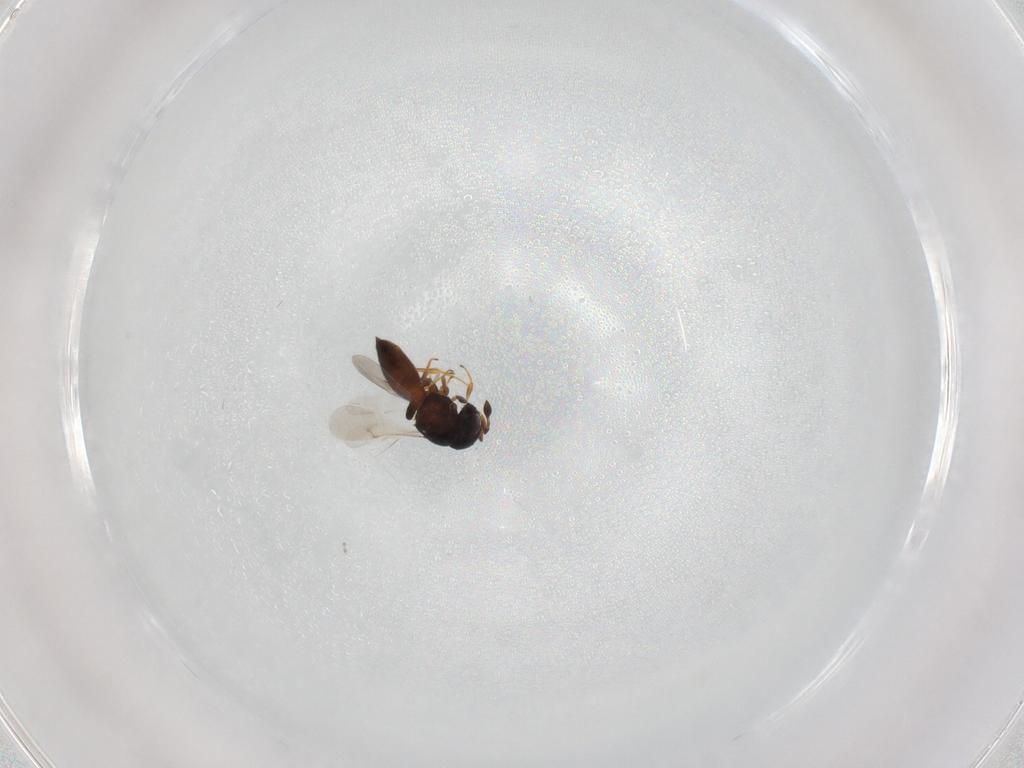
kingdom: Animalia
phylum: Arthropoda
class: Insecta
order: Hymenoptera
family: Scelionidae
